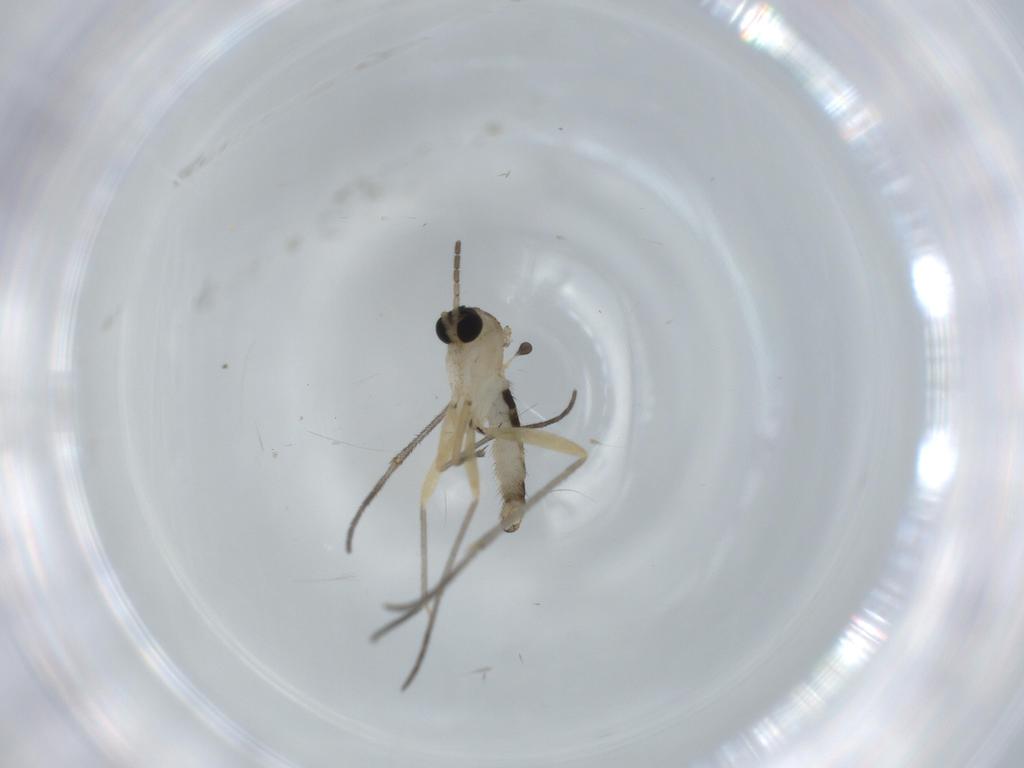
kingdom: Animalia
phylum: Arthropoda
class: Insecta
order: Diptera
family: Sciaridae
